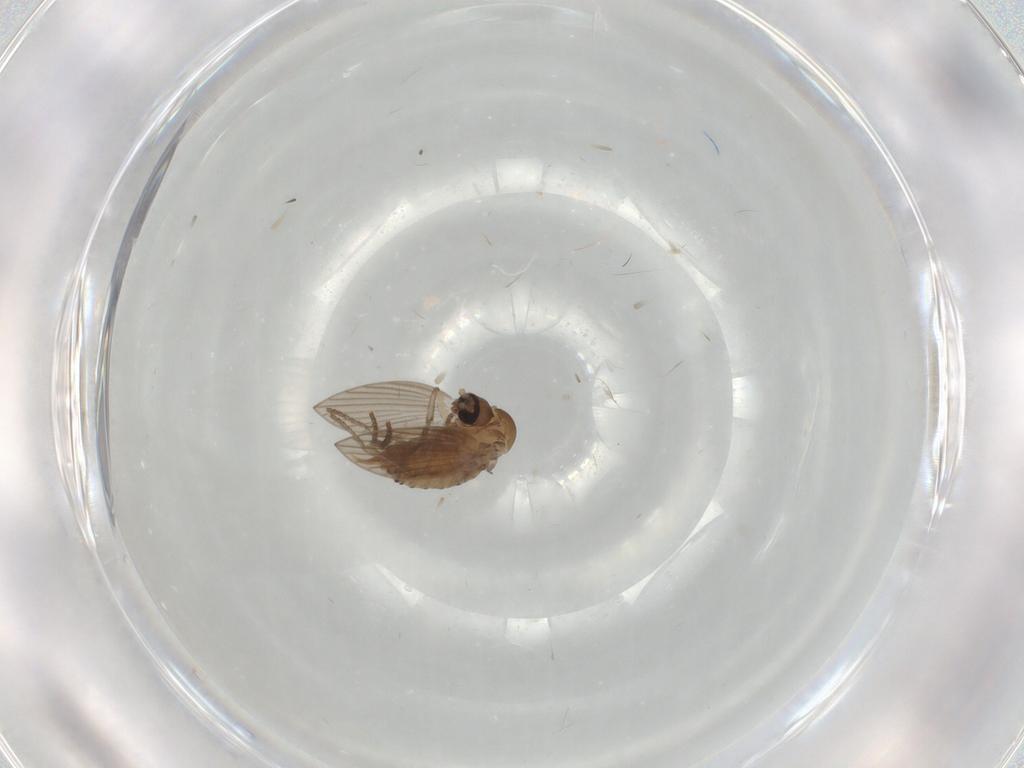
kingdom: Animalia
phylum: Arthropoda
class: Insecta
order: Diptera
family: Psychodidae
